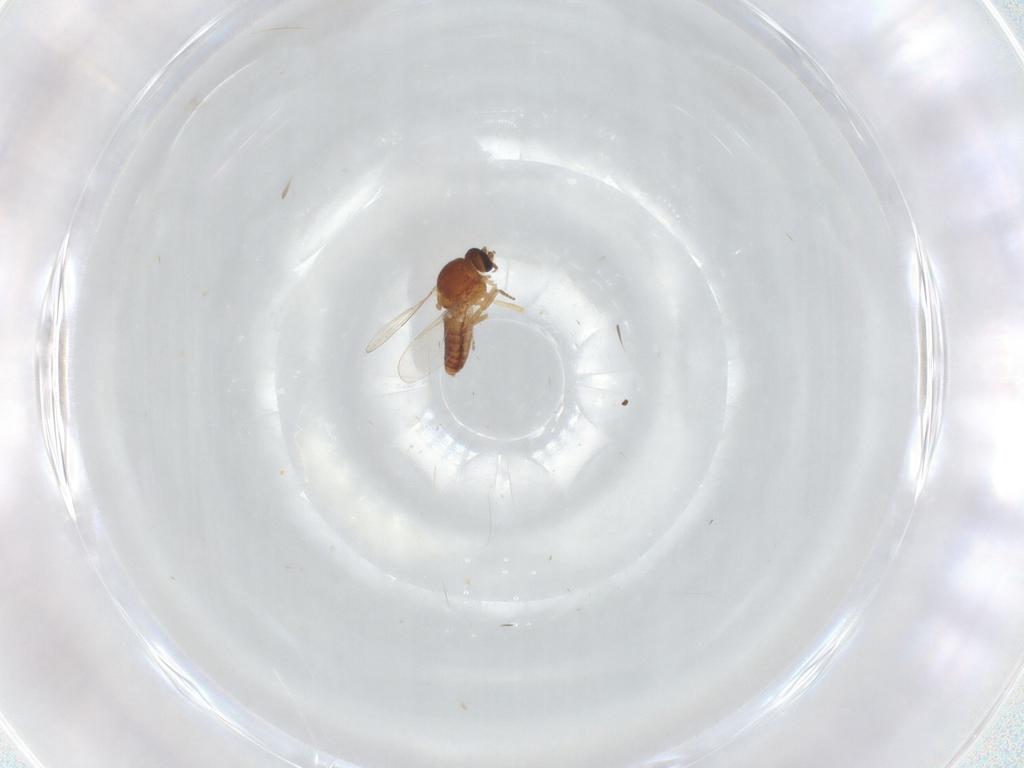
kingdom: Animalia
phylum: Arthropoda
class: Insecta
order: Diptera
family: Ceratopogonidae
